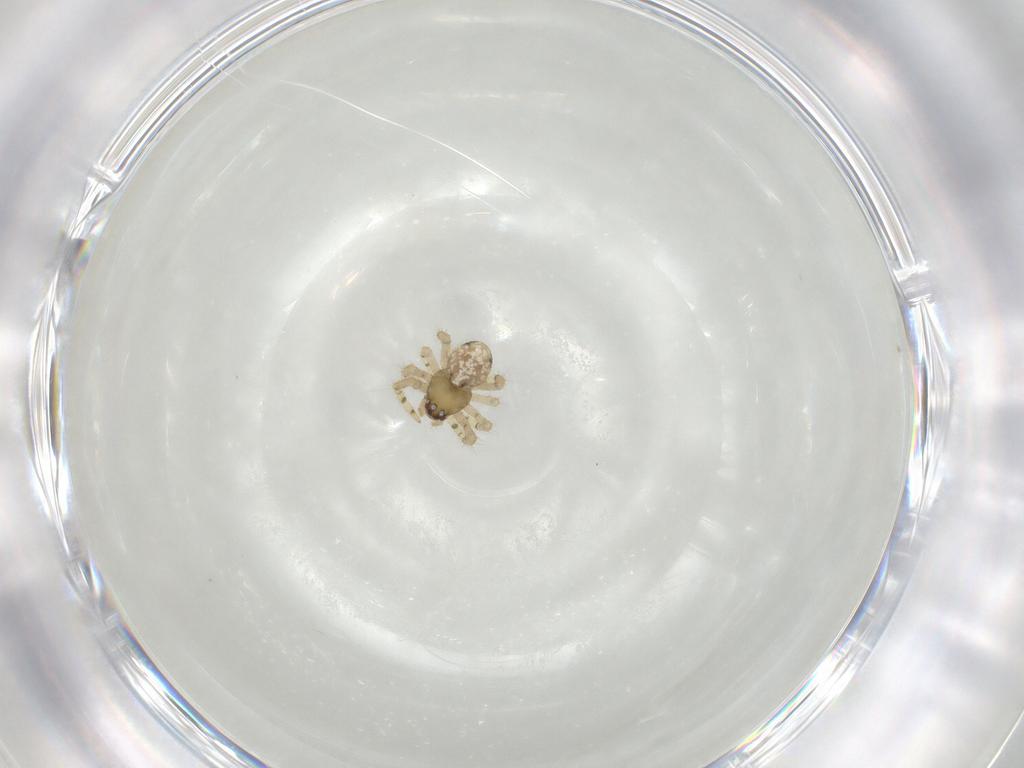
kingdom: Animalia
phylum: Arthropoda
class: Arachnida
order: Araneae
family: Theridiidae
